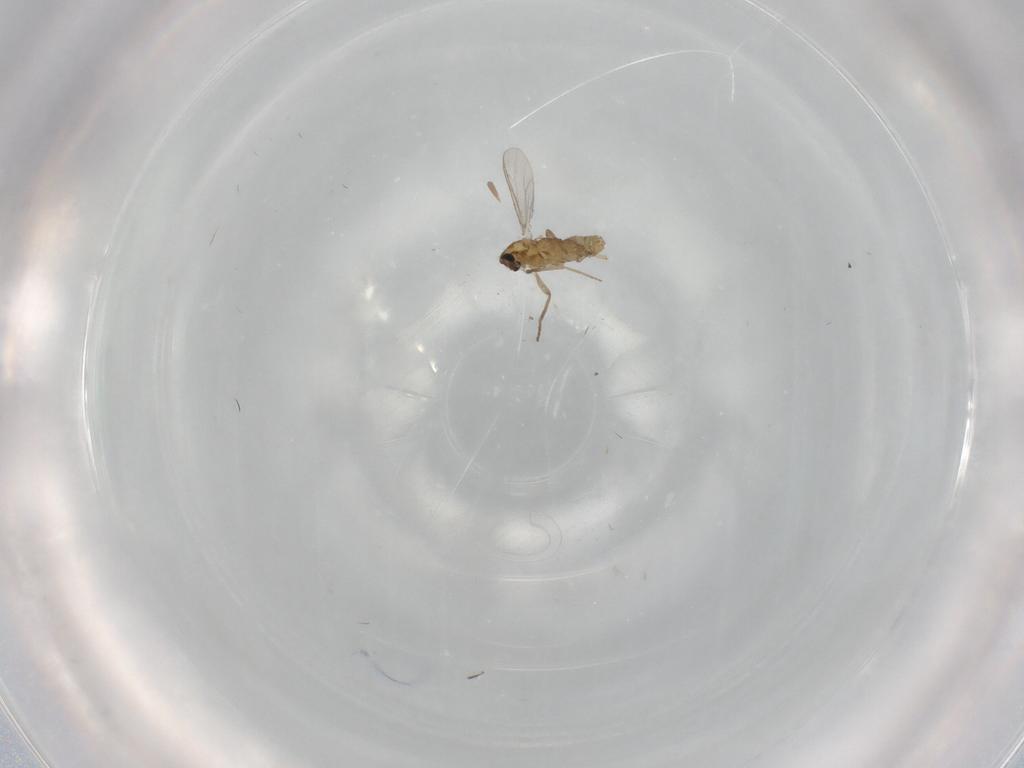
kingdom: Animalia
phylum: Arthropoda
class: Insecta
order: Diptera
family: Chironomidae
